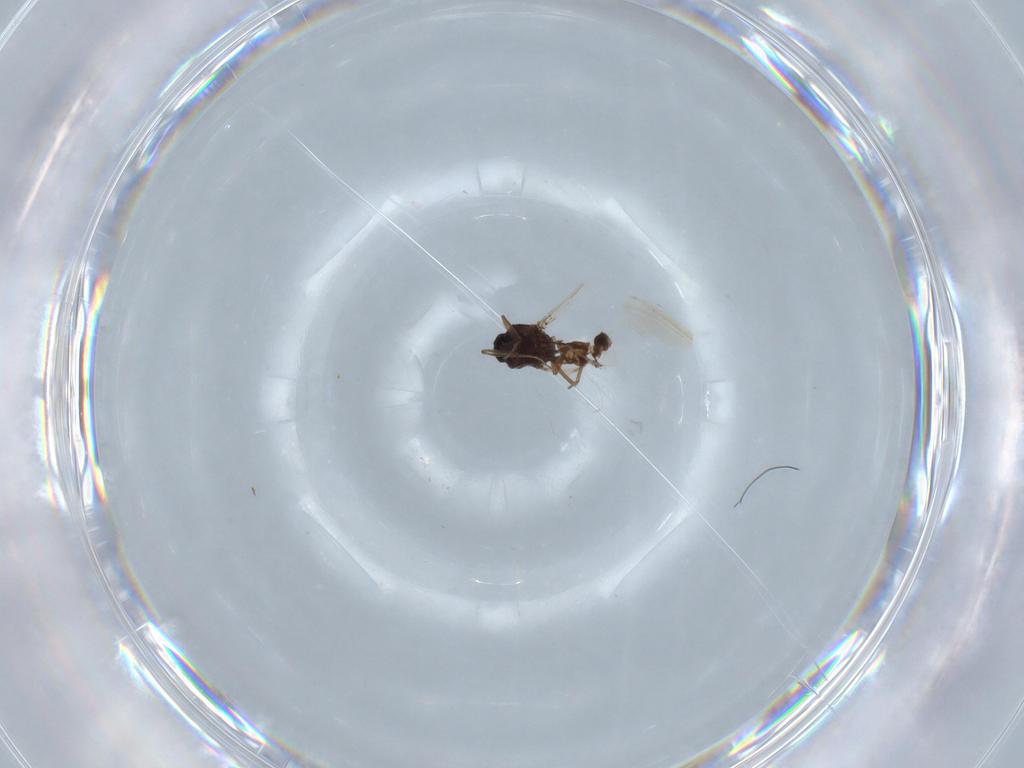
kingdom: Animalia
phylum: Arthropoda
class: Insecta
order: Diptera
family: Ceratopogonidae
